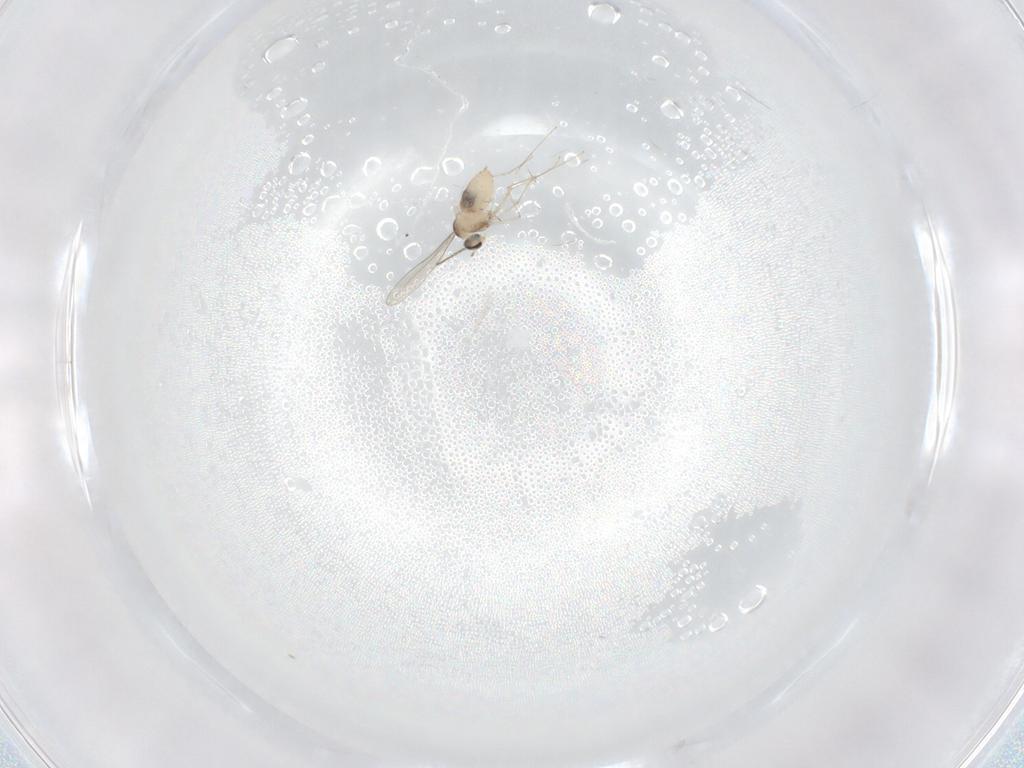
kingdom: Animalia
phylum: Arthropoda
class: Insecta
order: Diptera
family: Cecidomyiidae
